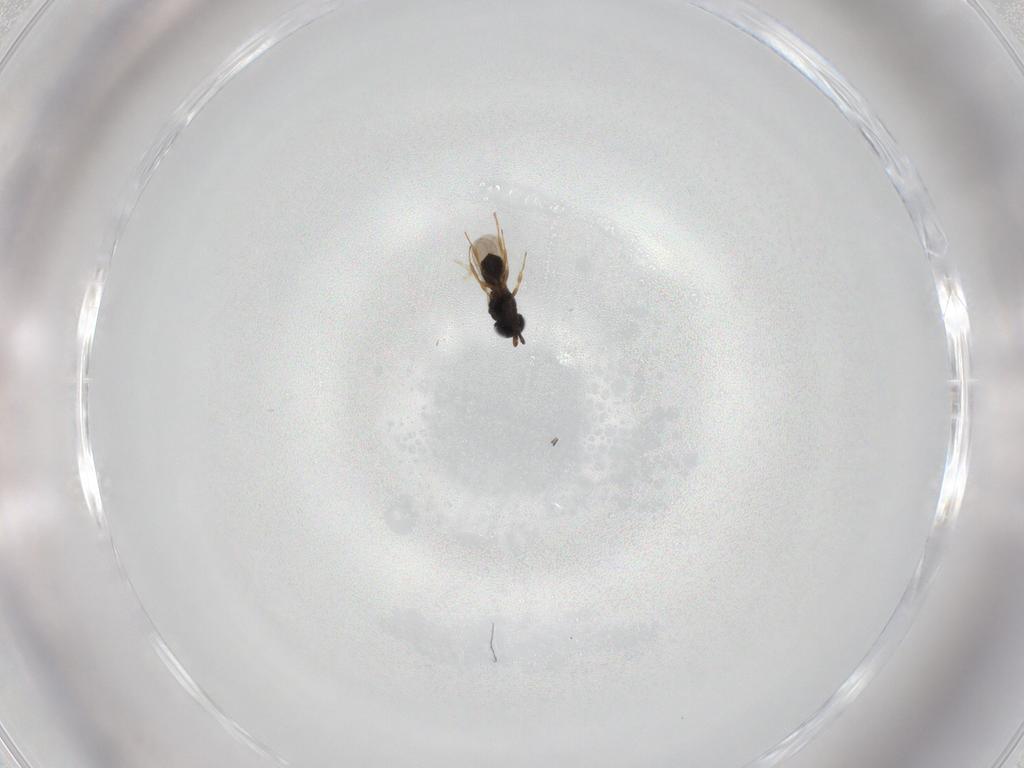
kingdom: Animalia
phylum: Arthropoda
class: Insecta
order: Hymenoptera
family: Scelionidae
